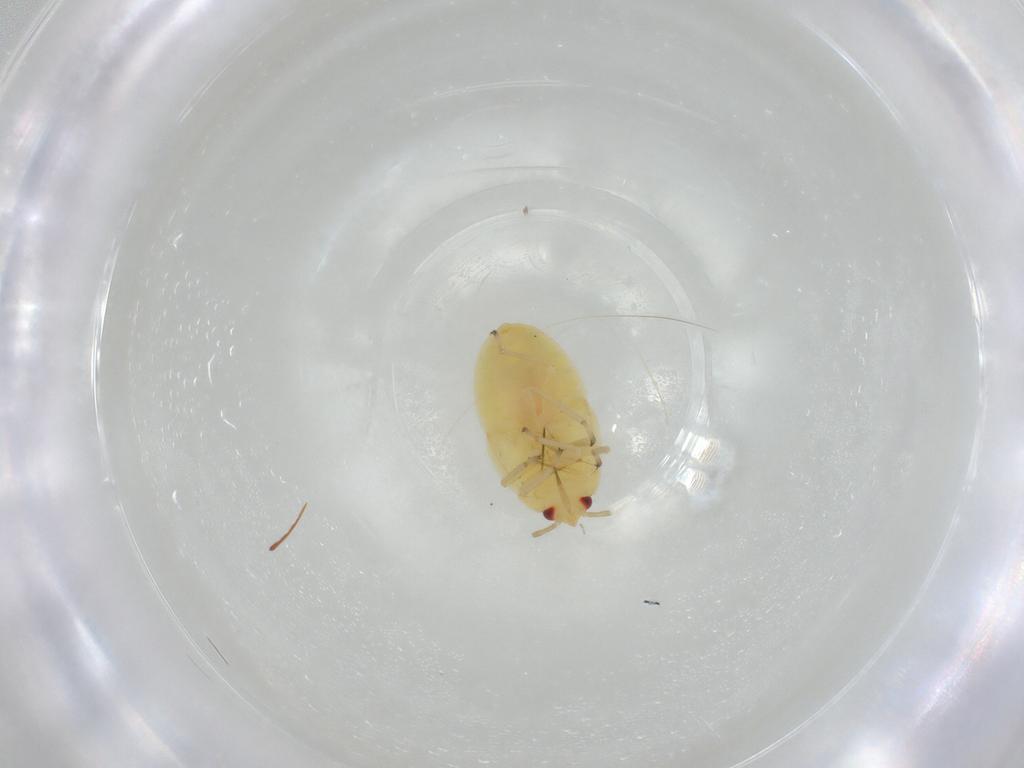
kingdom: Animalia
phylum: Arthropoda
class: Insecta
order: Hemiptera
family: Anthocoridae
